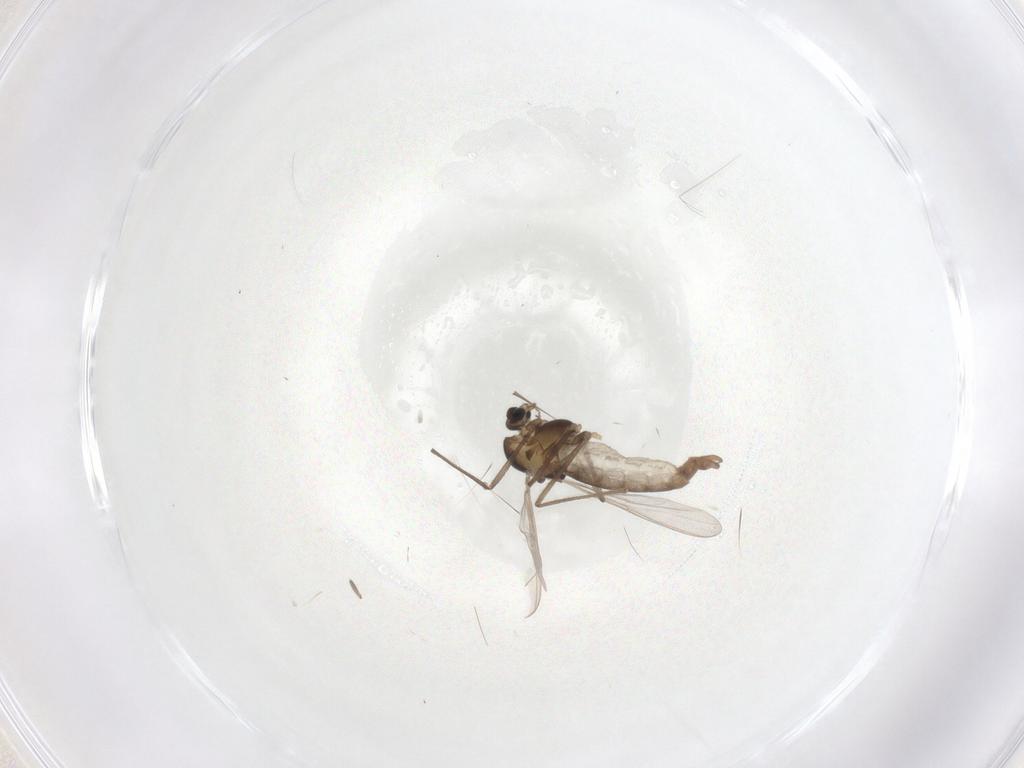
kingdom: Animalia
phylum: Arthropoda
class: Insecta
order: Diptera
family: Chironomidae
